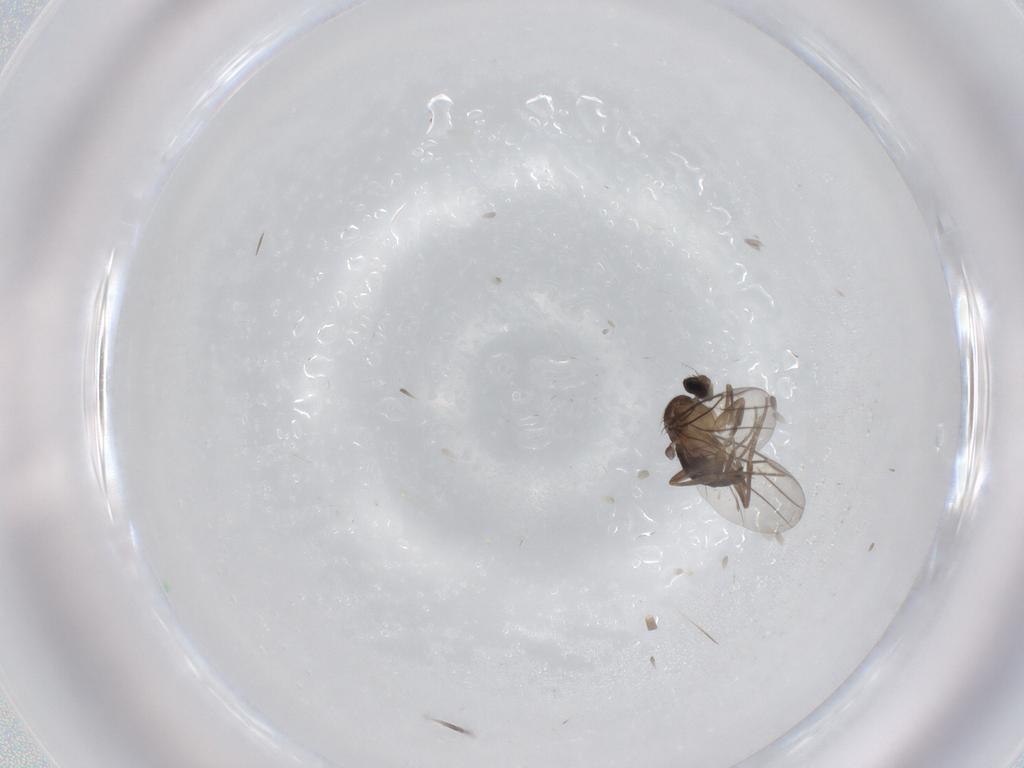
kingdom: Animalia
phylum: Arthropoda
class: Insecta
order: Diptera
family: Phoridae
